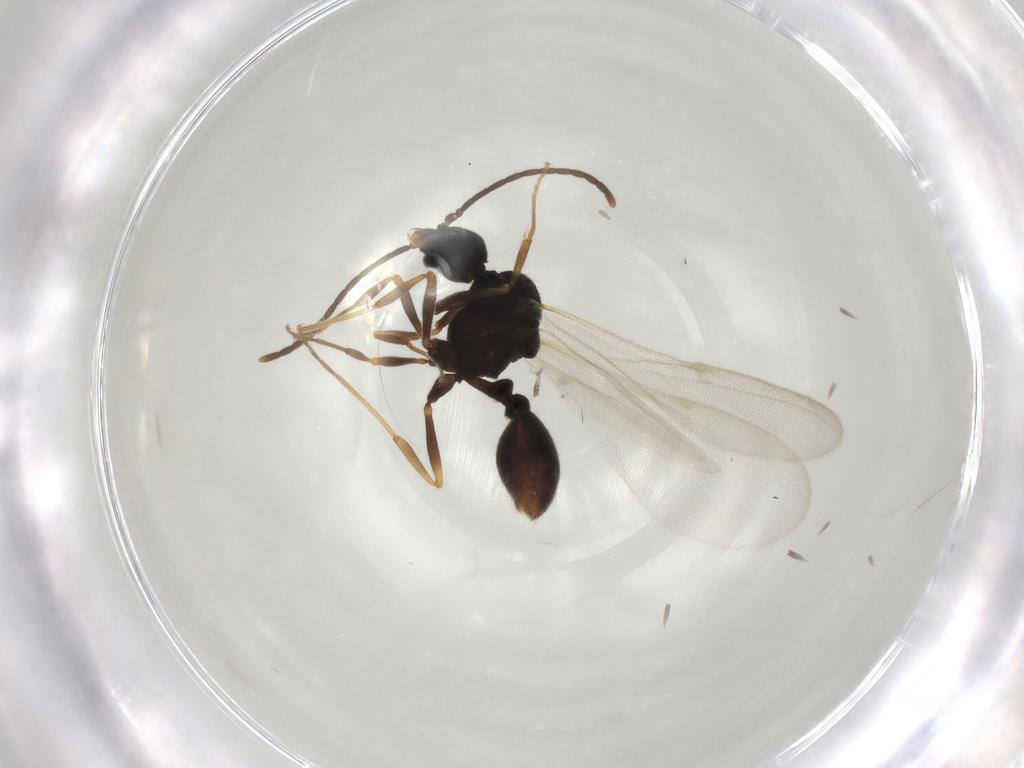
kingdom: Animalia
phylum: Arthropoda
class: Insecta
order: Hymenoptera
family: Formicidae
